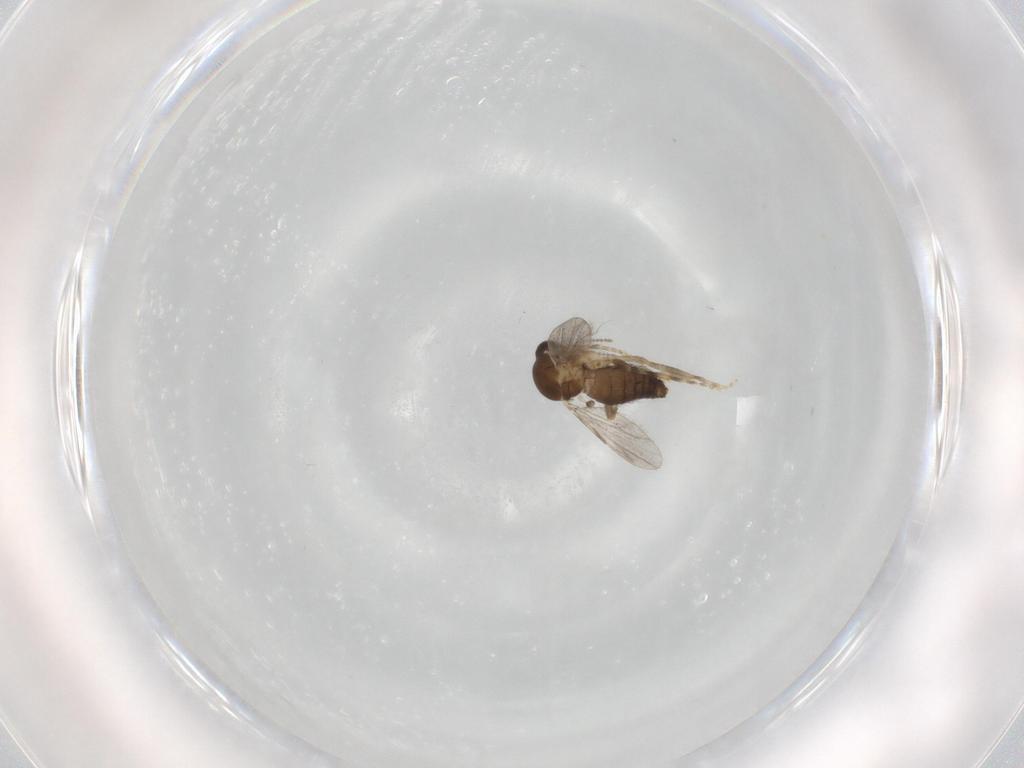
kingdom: Animalia
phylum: Arthropoda
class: Insecta
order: Diptera
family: Ceratopogonidae
